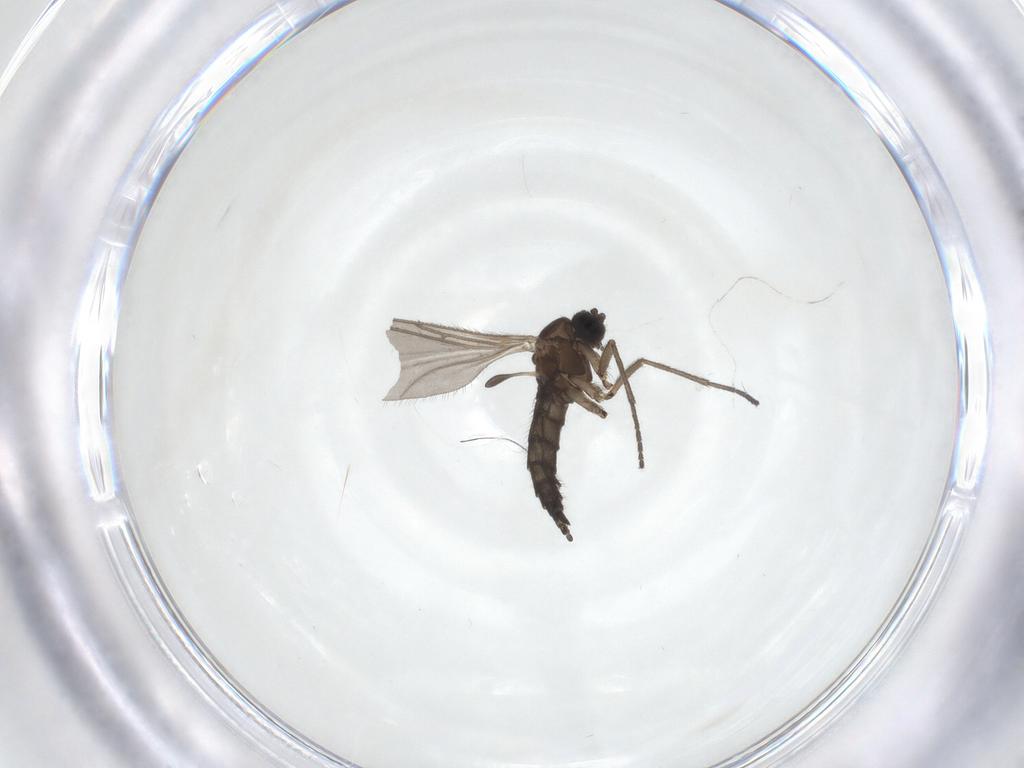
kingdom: Animalia
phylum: Arthropoda
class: Insecta
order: Diptera
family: Sciaridae
